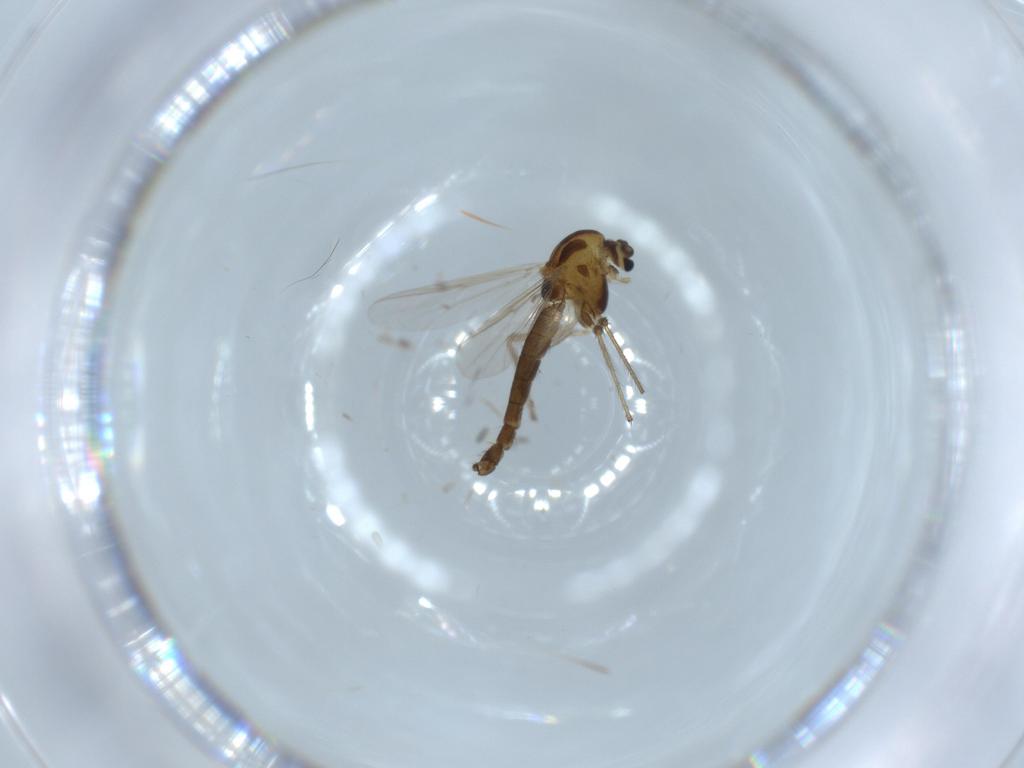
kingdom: Animalia
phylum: Arthropoda
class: Insecta
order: Diptera
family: Chironomidae
